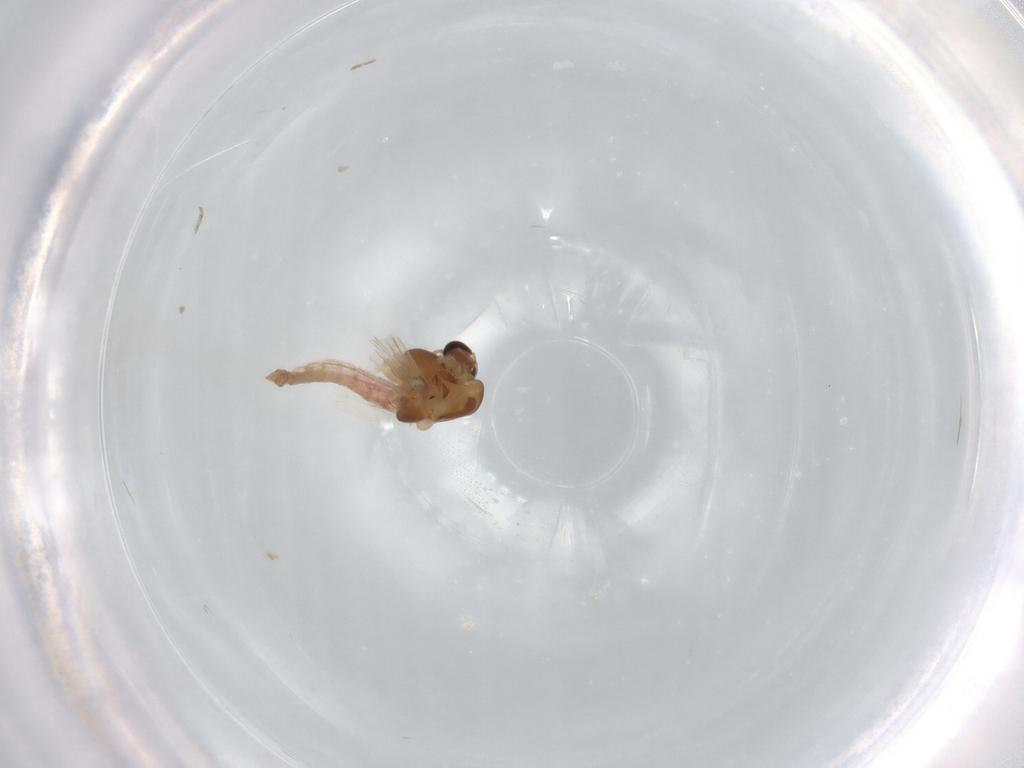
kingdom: Animalia
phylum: Arthropoda
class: Insecta
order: Diptera
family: Chironomidae
